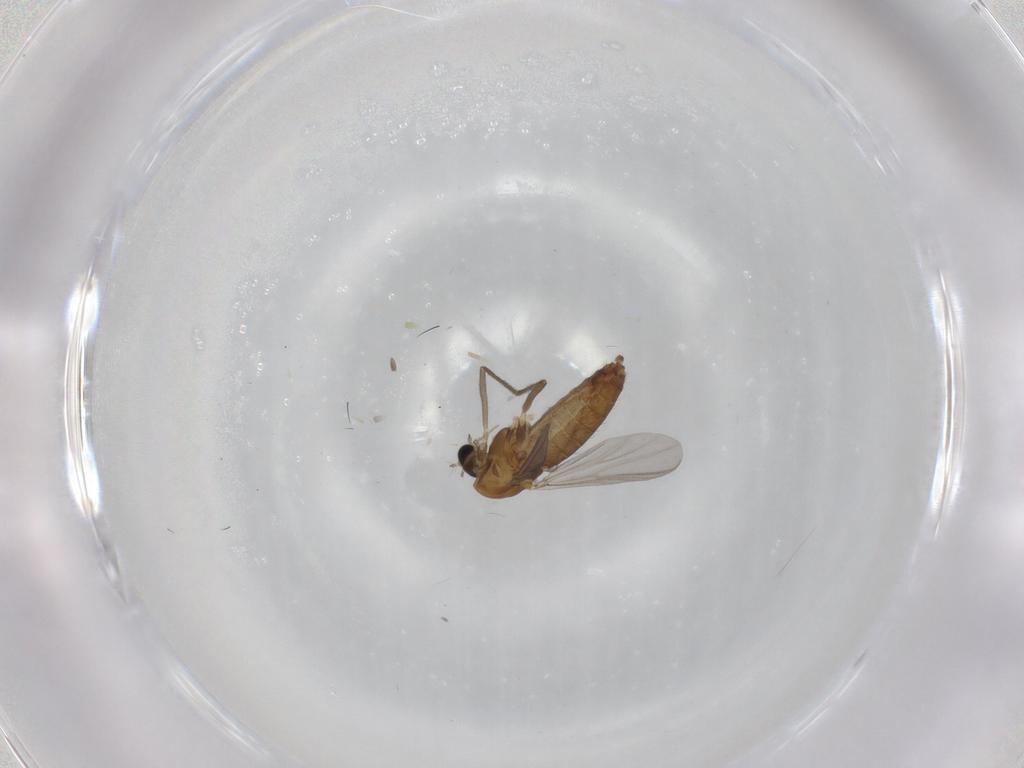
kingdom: Animalia
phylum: Arthropoda
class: Insecta
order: Diptera
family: Chironomidae
